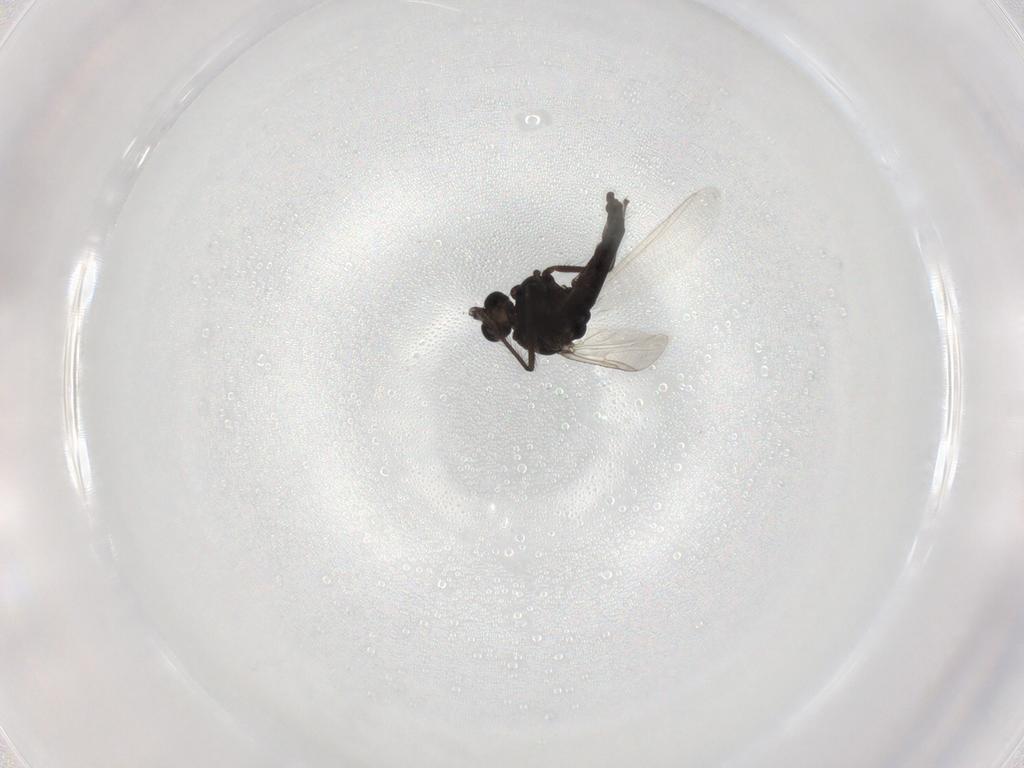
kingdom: Animalia
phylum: Arthropoda
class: Insecta
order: Diptera
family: Chironomidae
